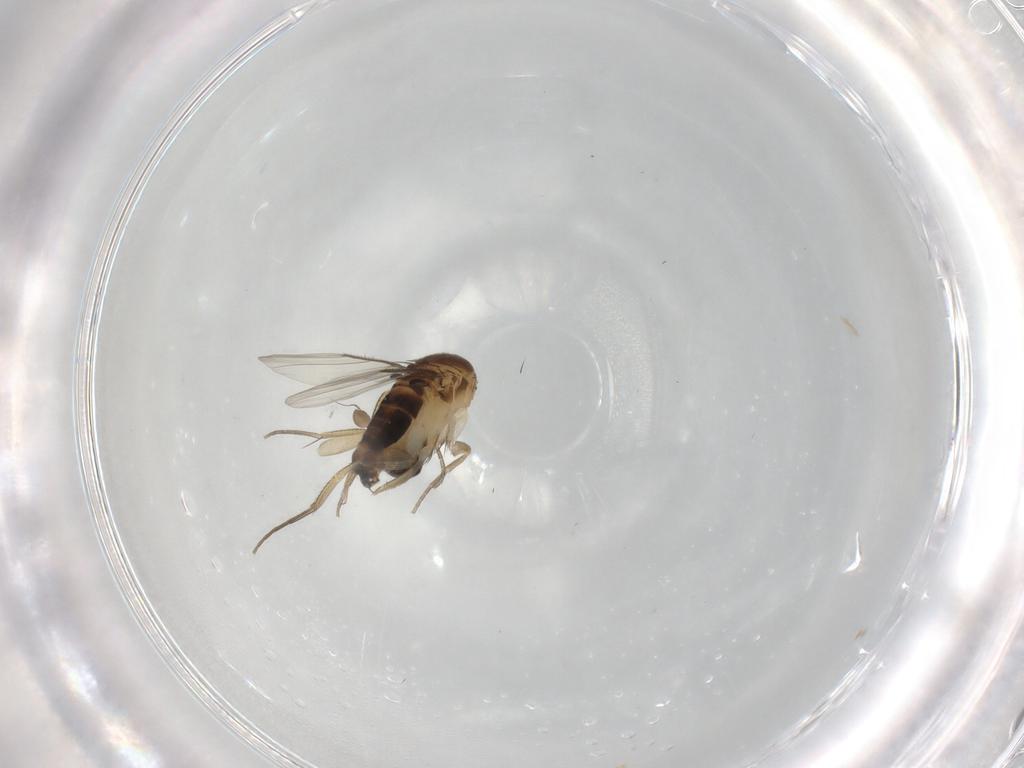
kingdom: Animalia
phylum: Arthropoda
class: Insecta
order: Diptera
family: Phoridae
